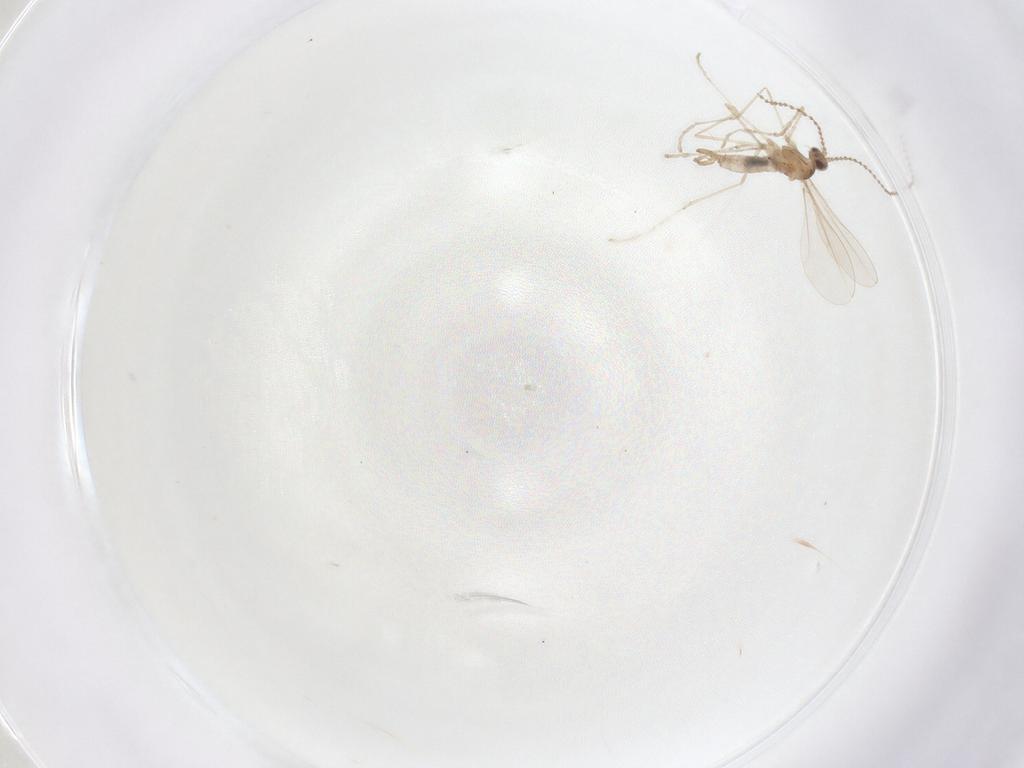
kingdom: Animalia
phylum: Arthropoda
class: Insecta
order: Diptera
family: Cecidomyiidae
